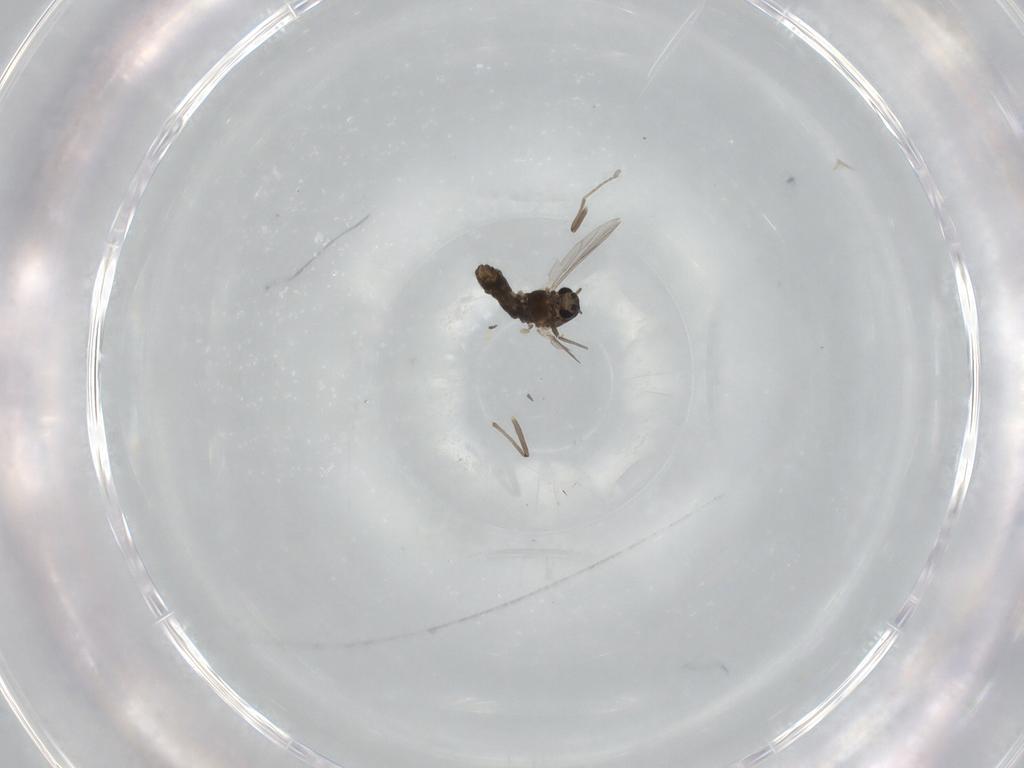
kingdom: Animalia
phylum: Arthropoda
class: Insecta
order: Diptera
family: Chironomidae
